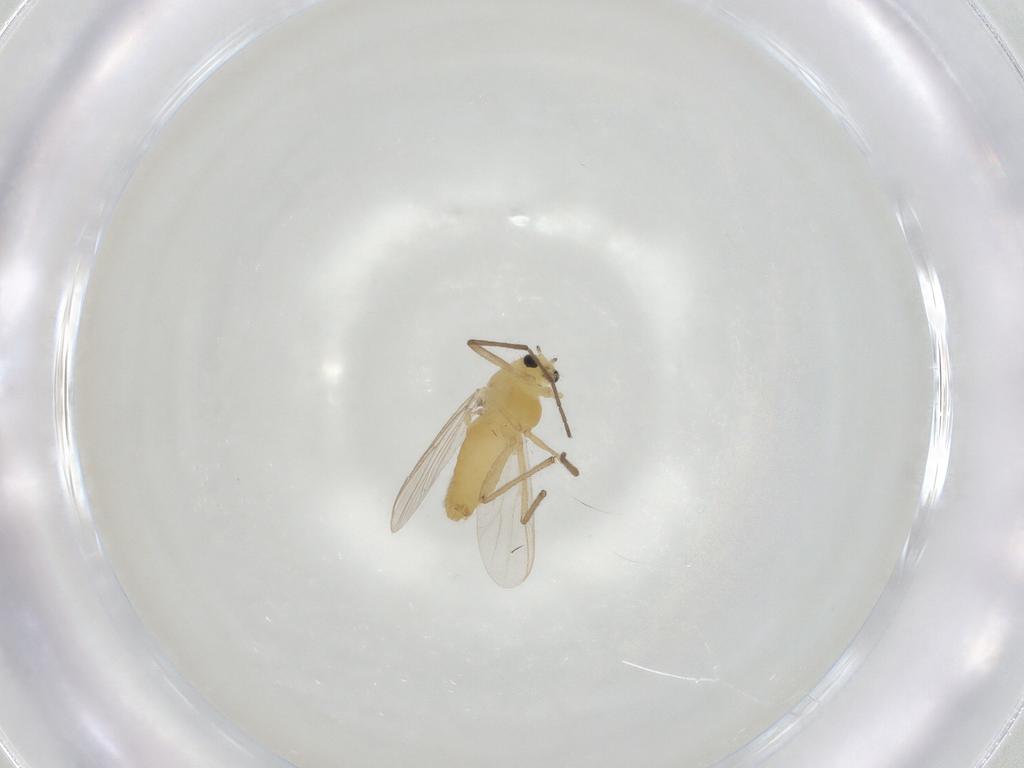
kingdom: Animalia
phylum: Arthropoda
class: Insecta
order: Diptera
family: Chironomidae
